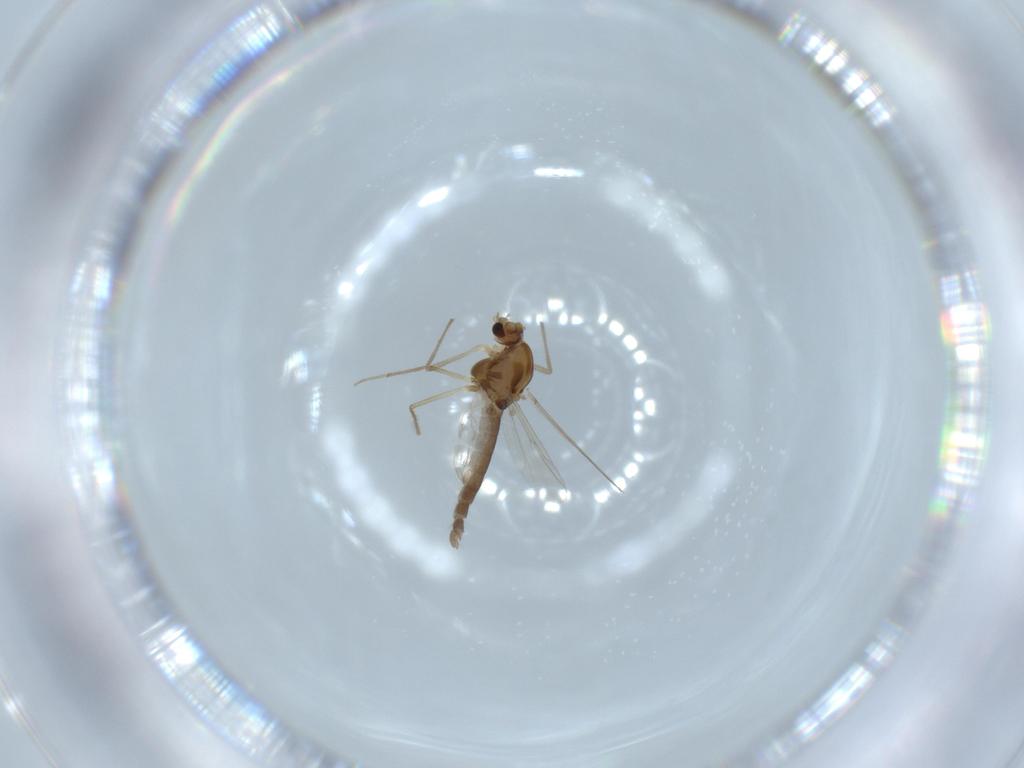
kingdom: Animalia
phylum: Arthropoda
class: Insecta
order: Diptera
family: Chironomidae
